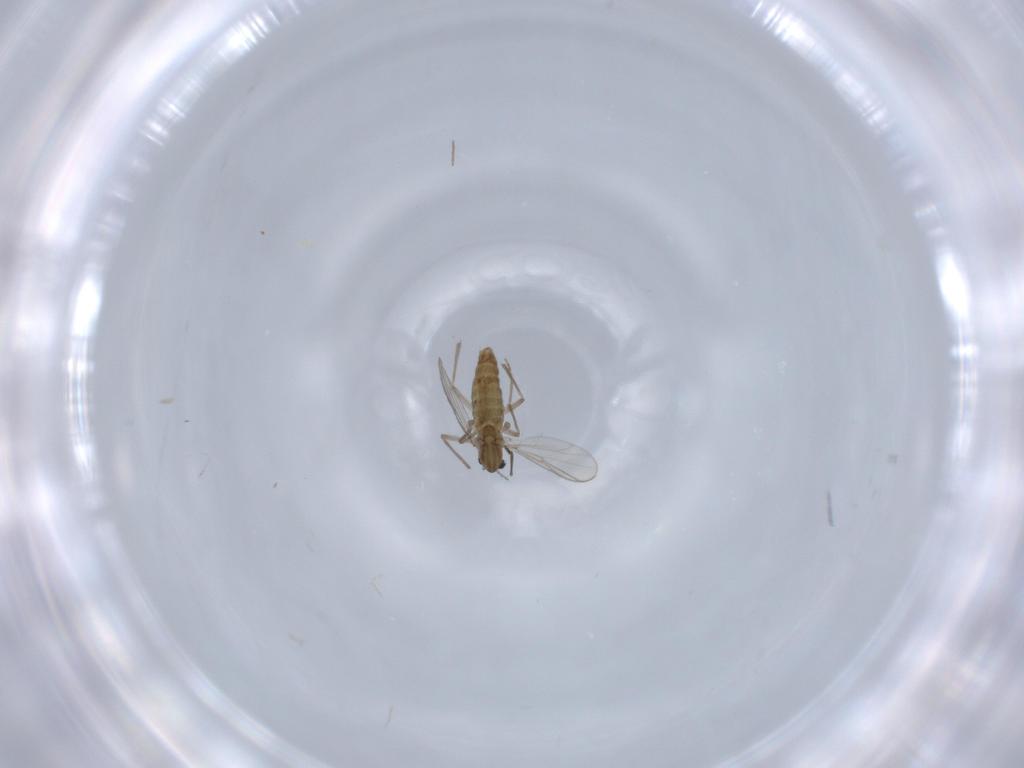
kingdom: Animalia
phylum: Arthropoda
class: Insecta
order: Diptera
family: Chironomidae
